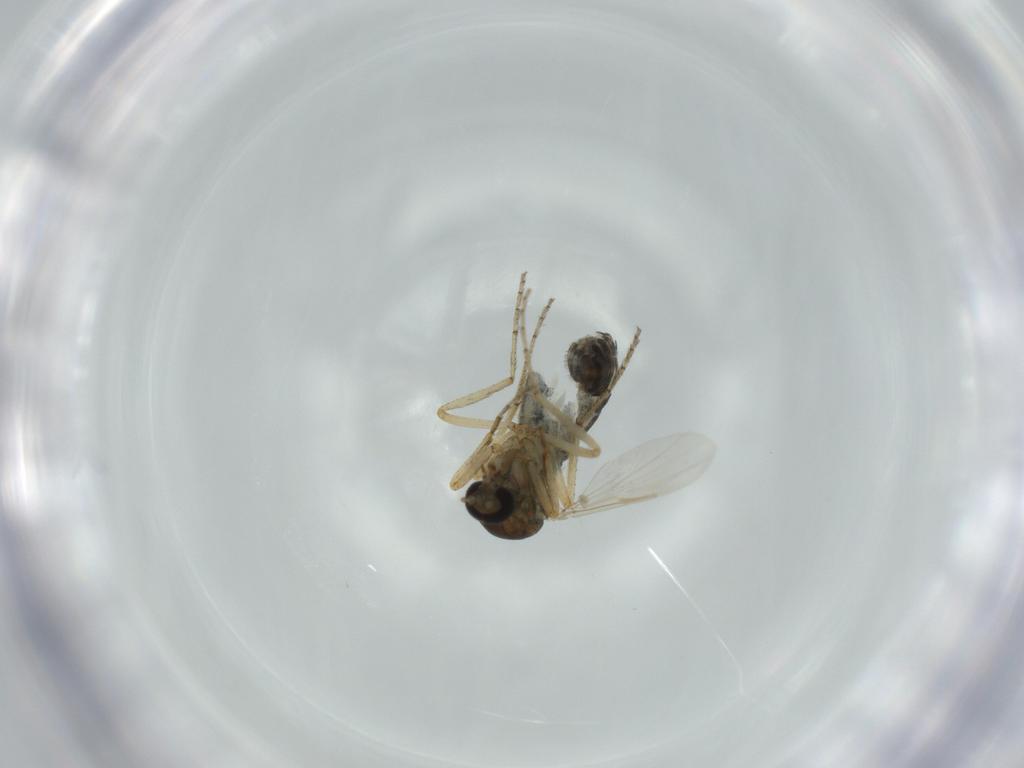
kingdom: Animalia
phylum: Arthropoda
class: Insecta
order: Diptera
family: Ceratopogonidae
